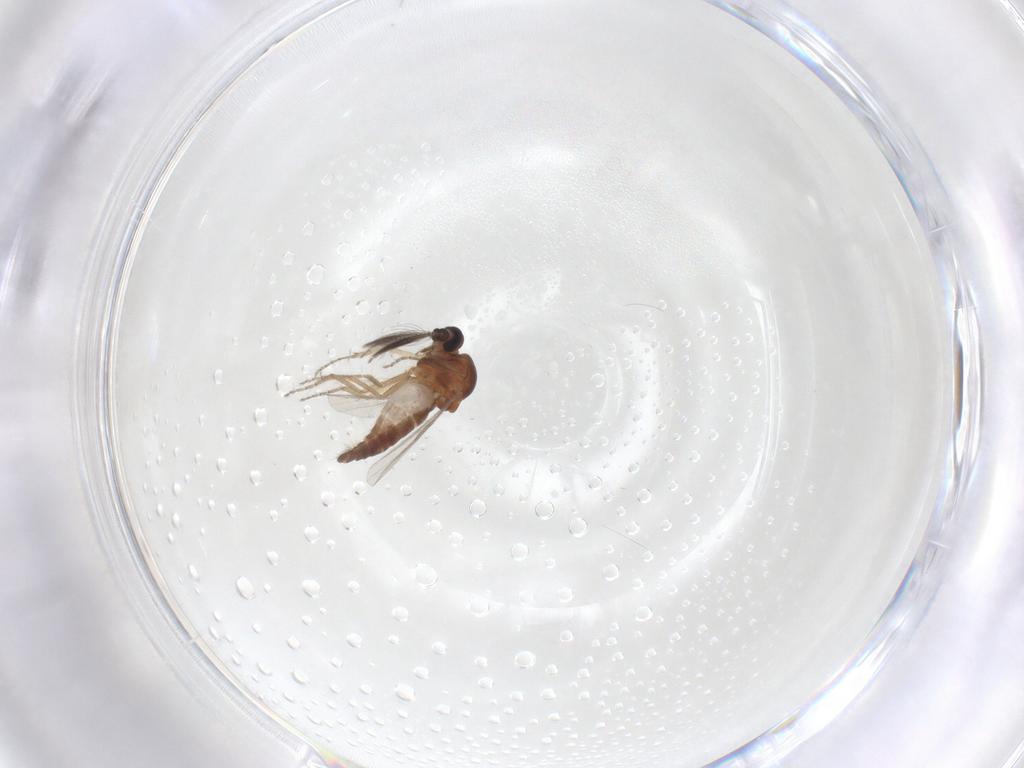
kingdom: Animalia
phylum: Arthropoda
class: Insecta
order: Diptera
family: Ceratopogonidae
